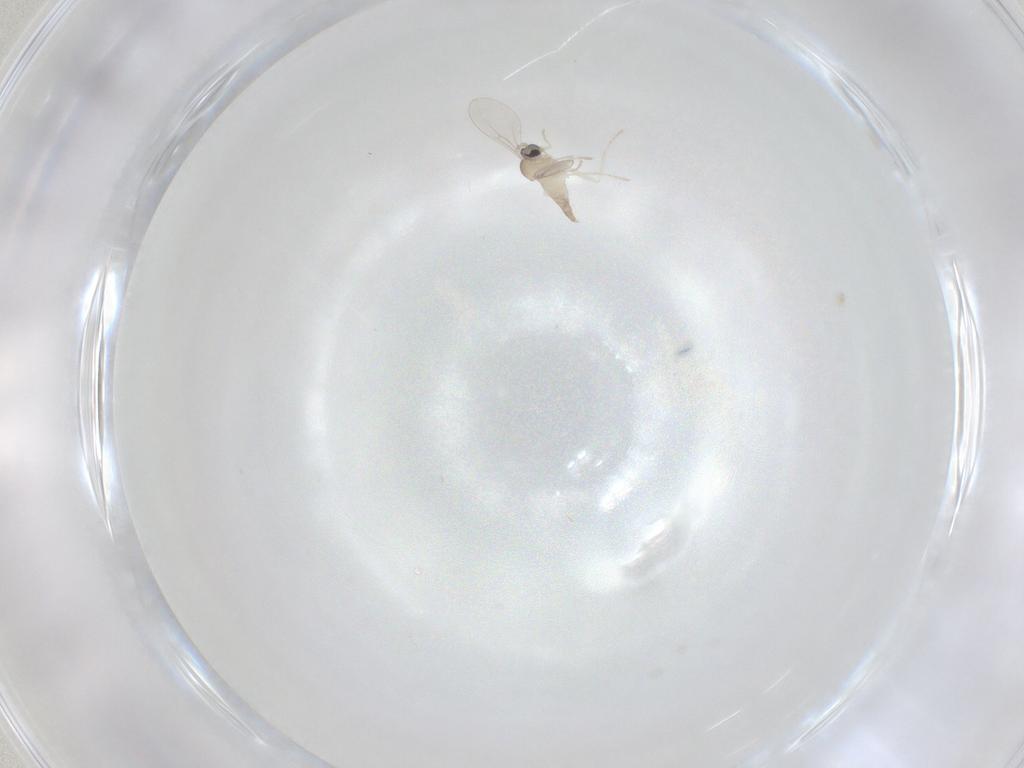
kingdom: Animalia
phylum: Arthropoda
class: Insecta
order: Diptera
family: Cecidomyiidae
